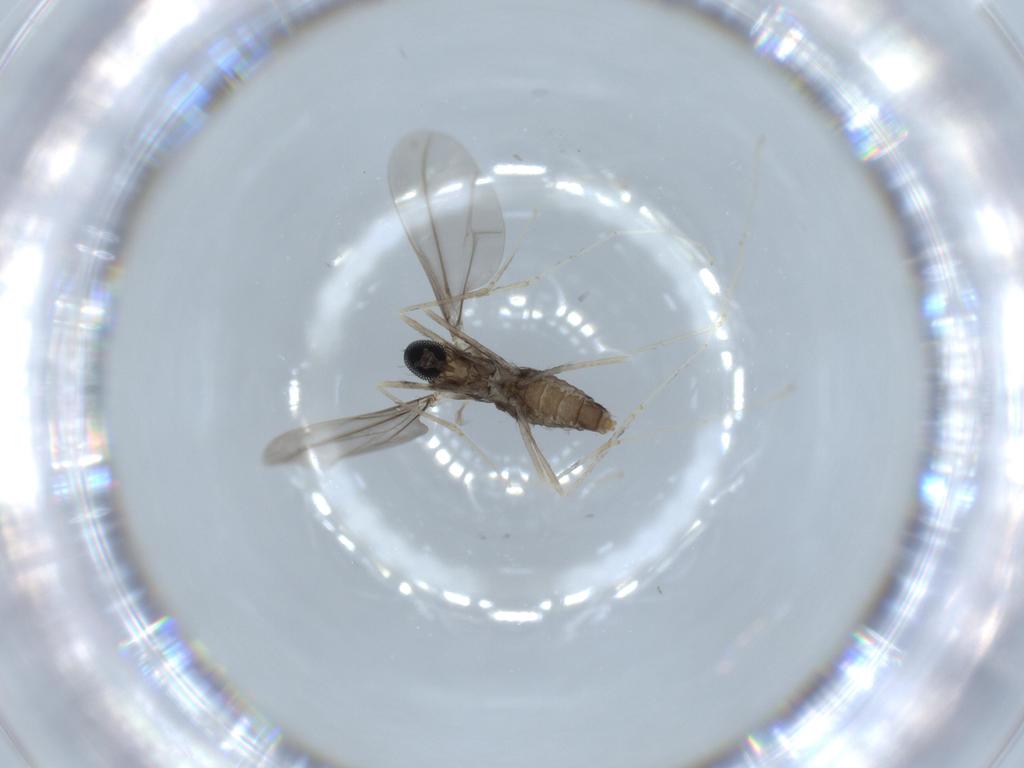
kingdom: Animalia
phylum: Arthropoda
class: Insecta
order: Diptera
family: Cecidomyiidae
